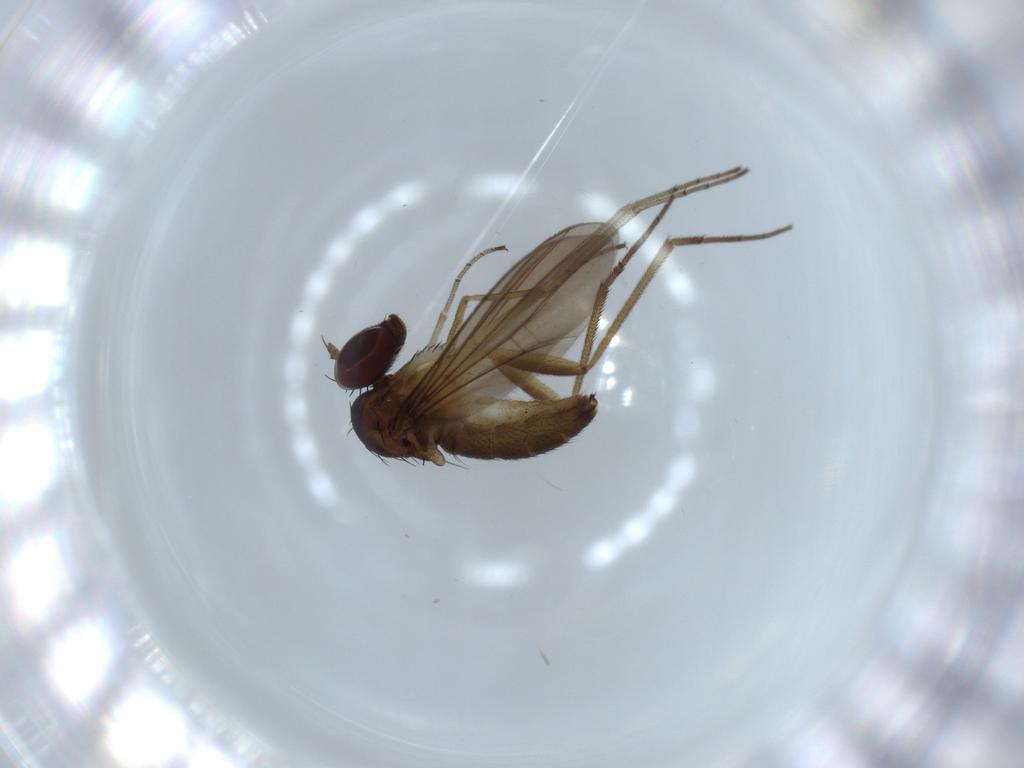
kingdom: Animalia
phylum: Arthropoda
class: Insecta
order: Diptera
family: Dolichopodidae
